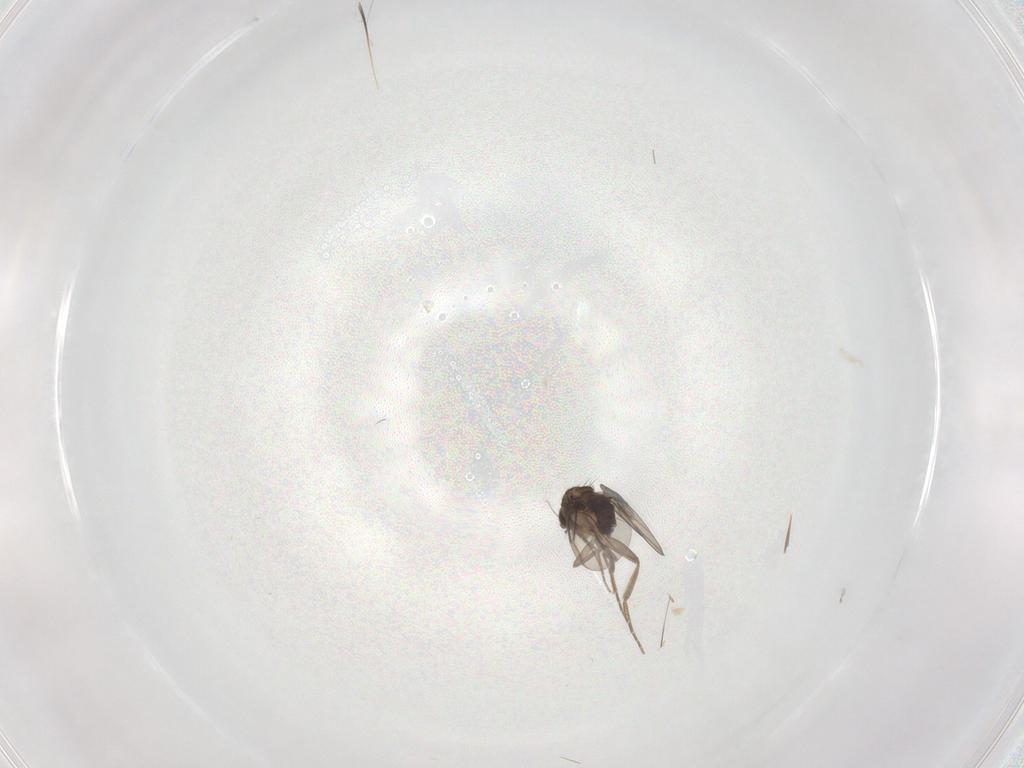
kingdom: Animalia
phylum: Arthropoda
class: Insecta
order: Diptera
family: Phoridae
